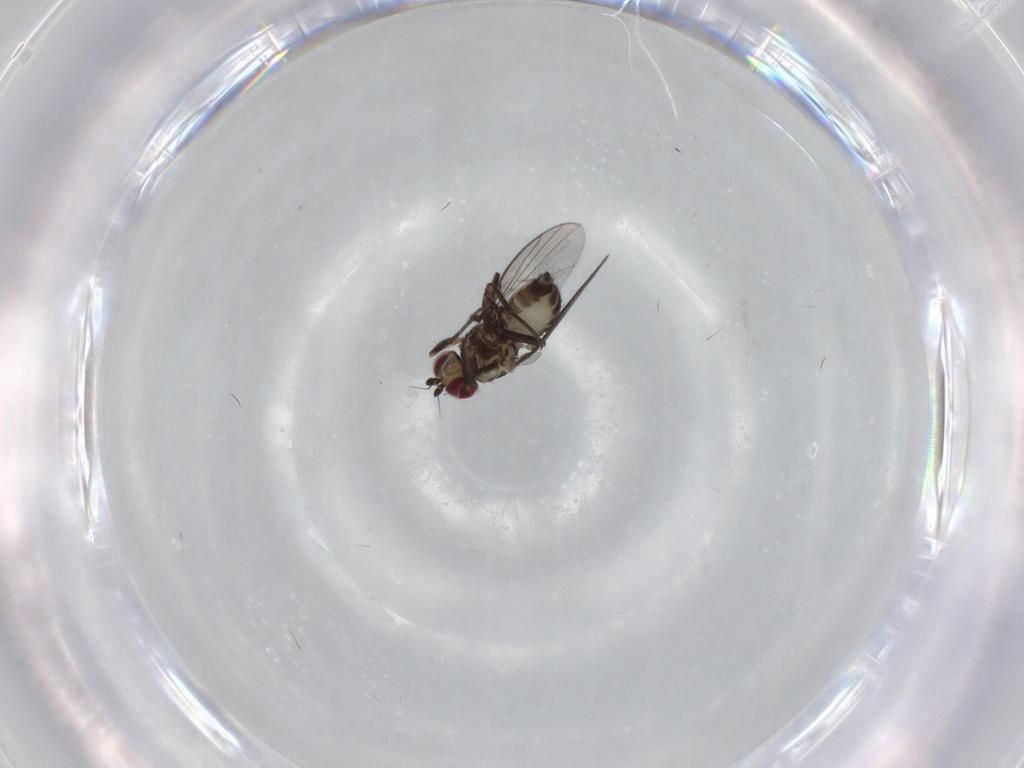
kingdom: Animalia
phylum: Arthropoda
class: Insecta
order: Diptera
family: Agromyzidae
